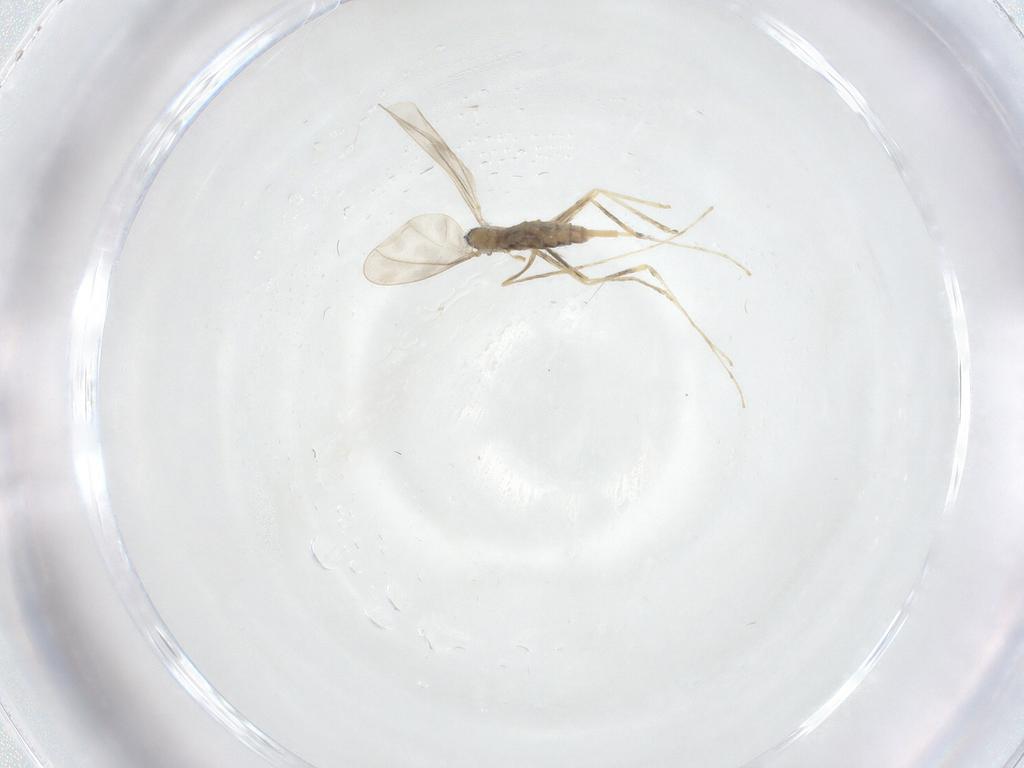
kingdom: Animalia
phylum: Arthropoda
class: Insecta
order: Diptera
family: Cecidomyiidae
